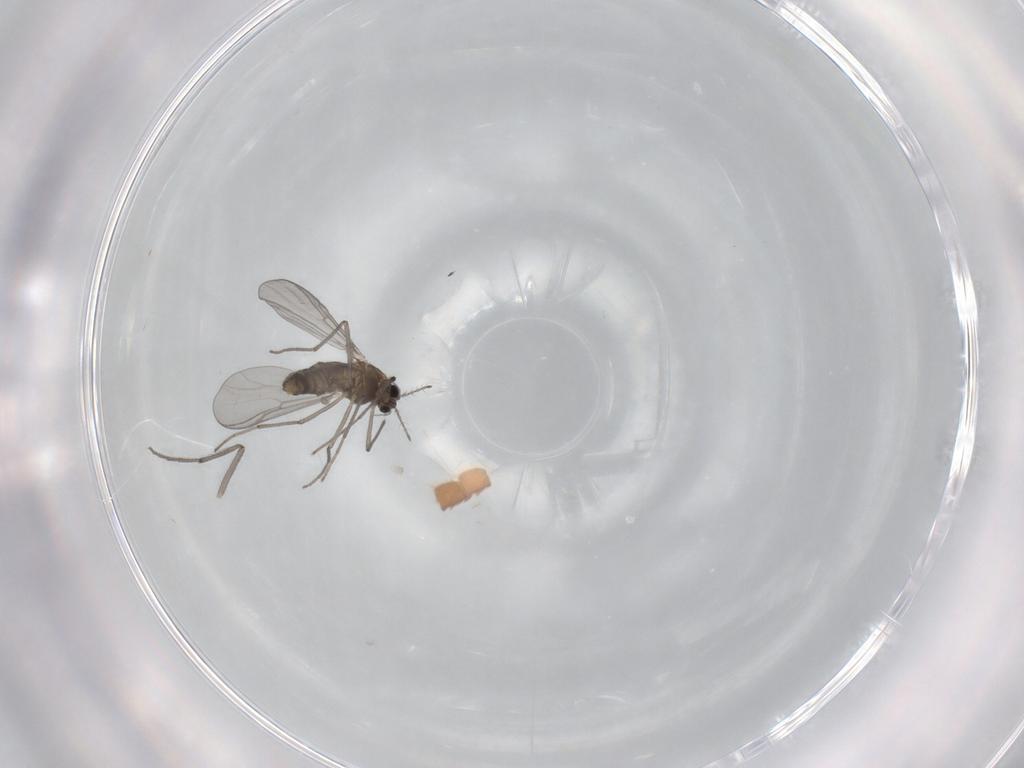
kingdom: Animalia
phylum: Arthropoda
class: Insecta
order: Diptera
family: Chironomidae
